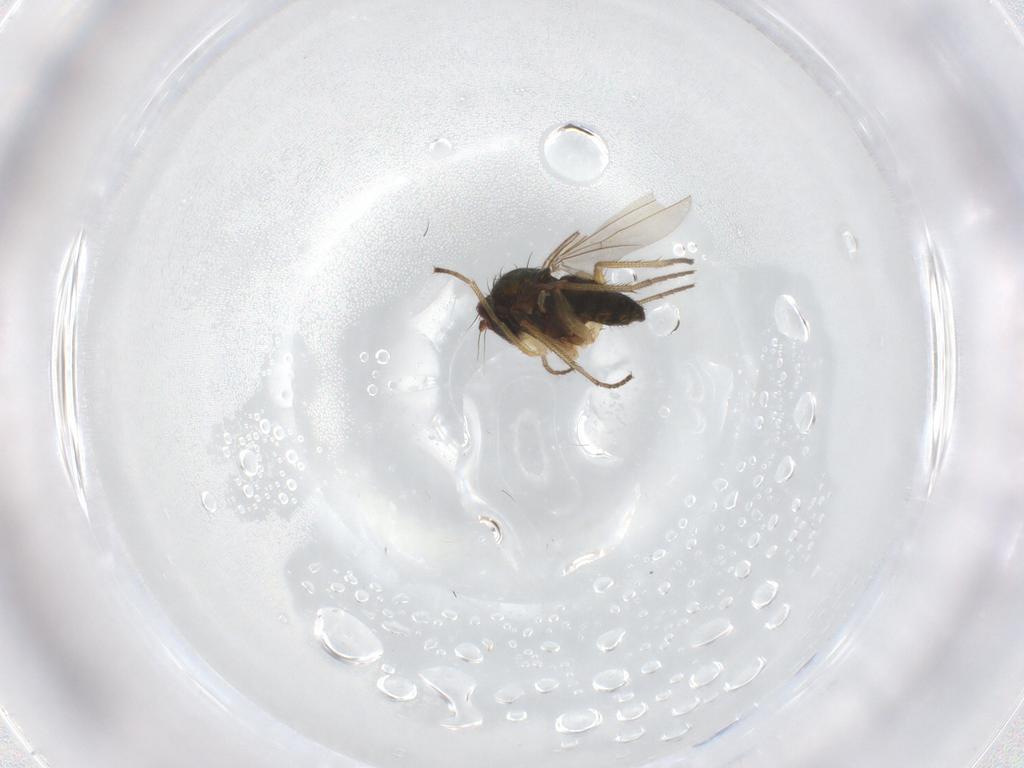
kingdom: Animalia
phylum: Arthropoda
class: Insecta
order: Diptera
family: Dolichopodidae
